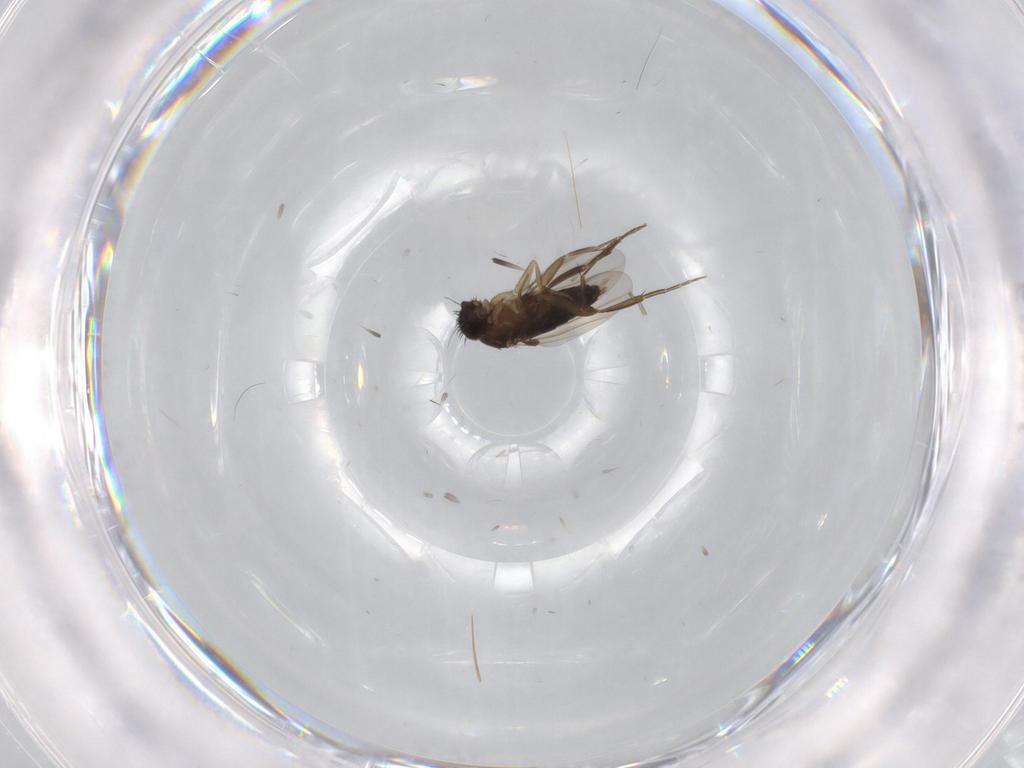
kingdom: Animalia
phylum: Arthropoda
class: Insecta
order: Diptera
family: Phoridae
